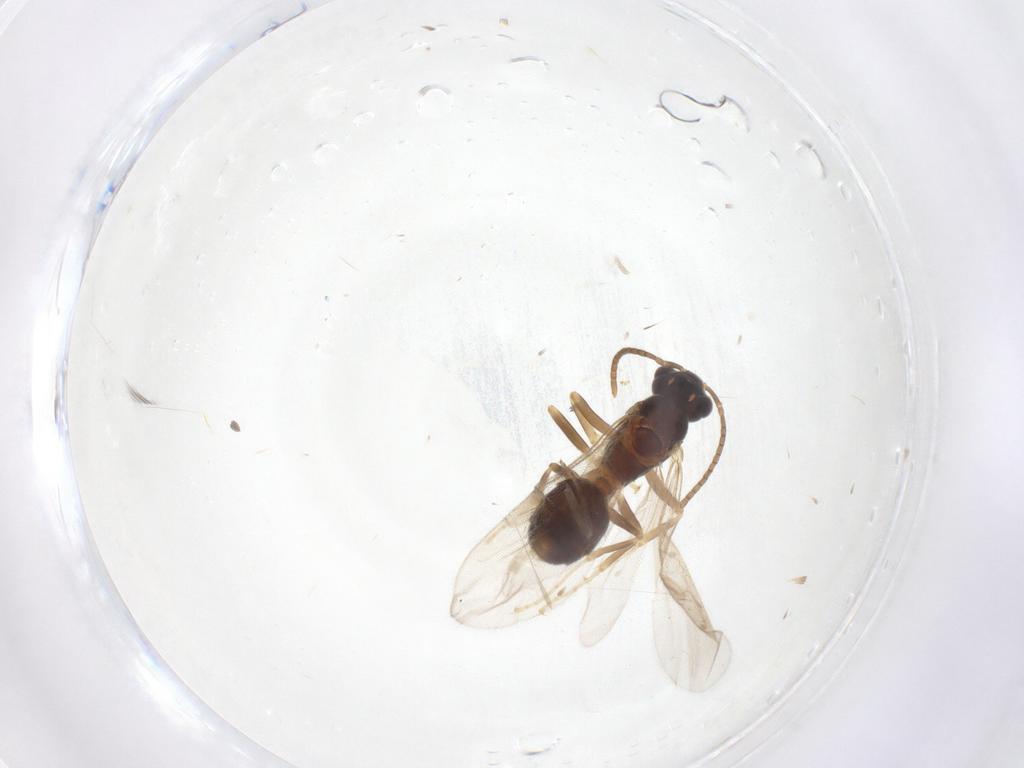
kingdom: Animalia
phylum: Arthropoda
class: Insecta
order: Hymenoptera
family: Formicidae
